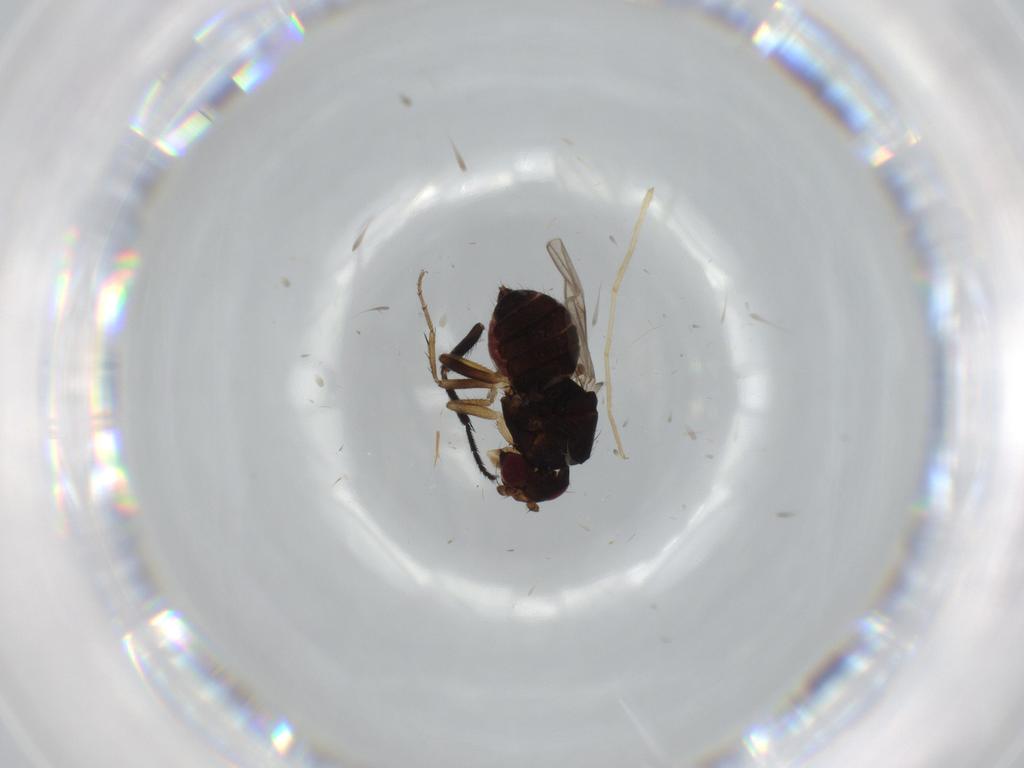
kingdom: Animalia
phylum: Arthropoda
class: Insecta
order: Diptera
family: Cecidomyiidae
